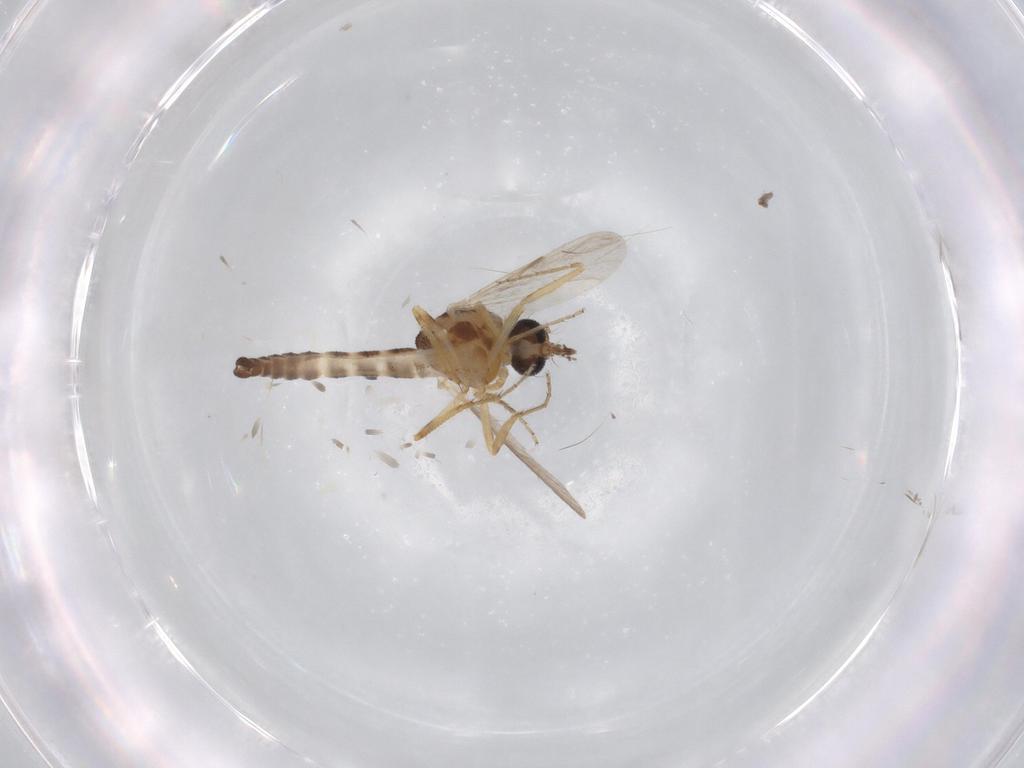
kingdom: Animalia
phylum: Arthropoda
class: Insecta
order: Diptera
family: Ceratopogonidae
